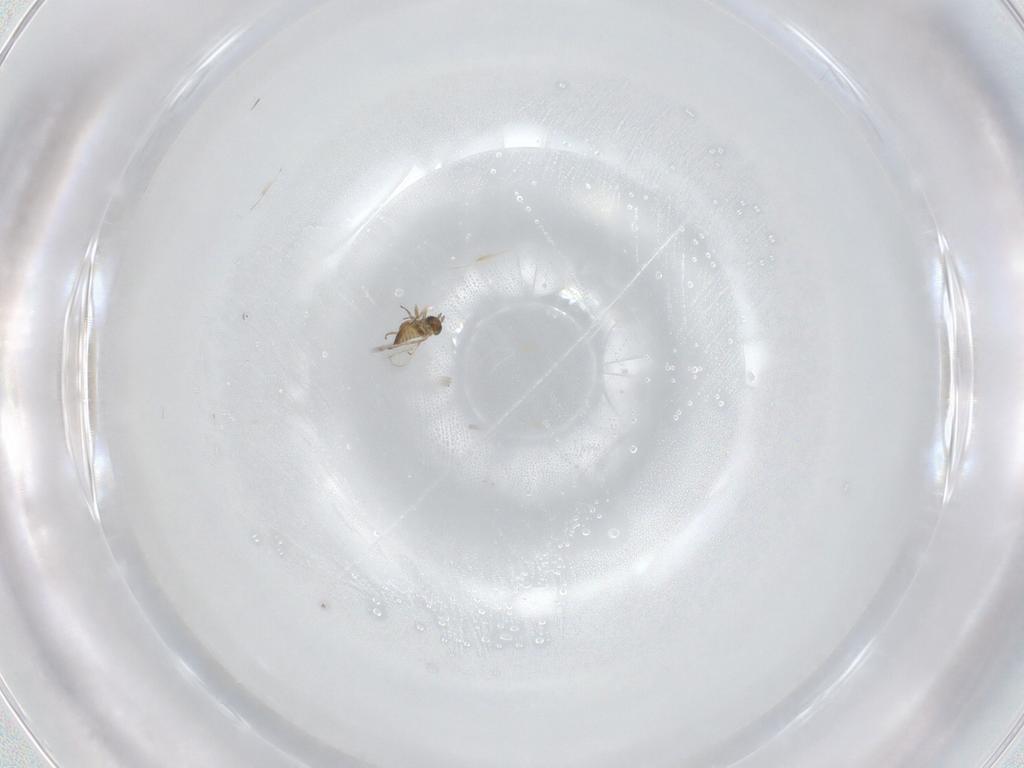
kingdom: Animalia
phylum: Arthropoda
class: Insecta
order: Hymenoptera
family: Trichogrammatidae
